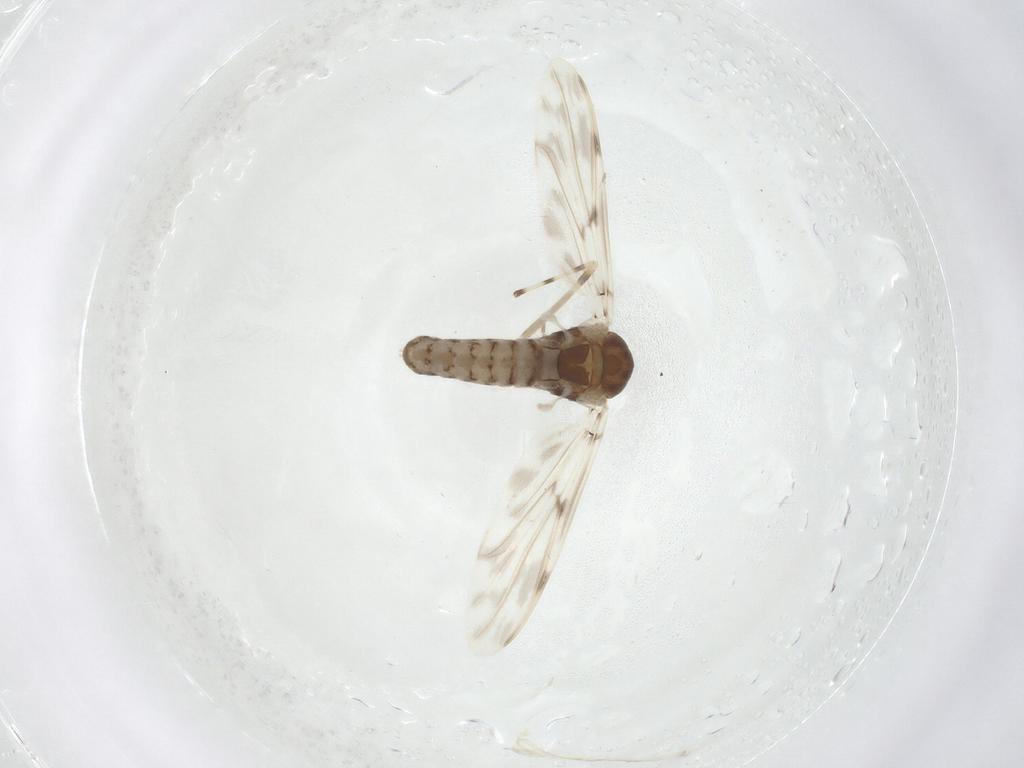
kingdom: Animalia
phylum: Arthropoda
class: Insecta
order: Diptera
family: Chironomidae
